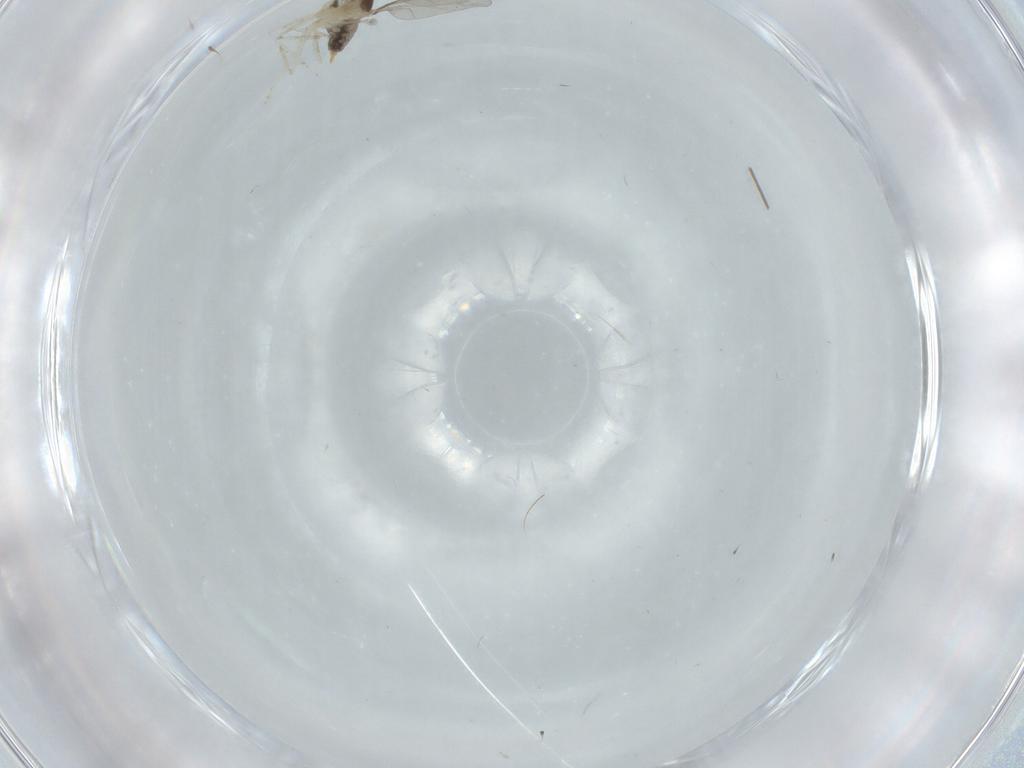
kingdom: Animalia
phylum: Arthropoda
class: Insecta
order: Diptera
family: Cecidomyiidae
